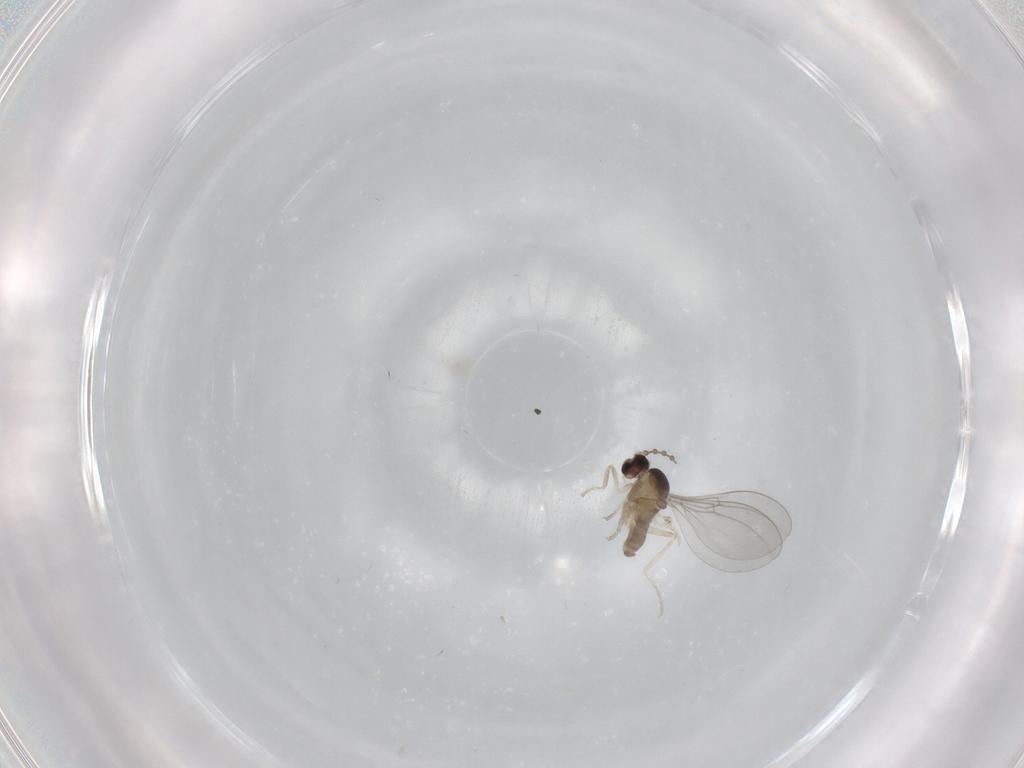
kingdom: Animalia
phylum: Arthropoda
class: Insecta
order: Diptera
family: Cecidomyiidae
